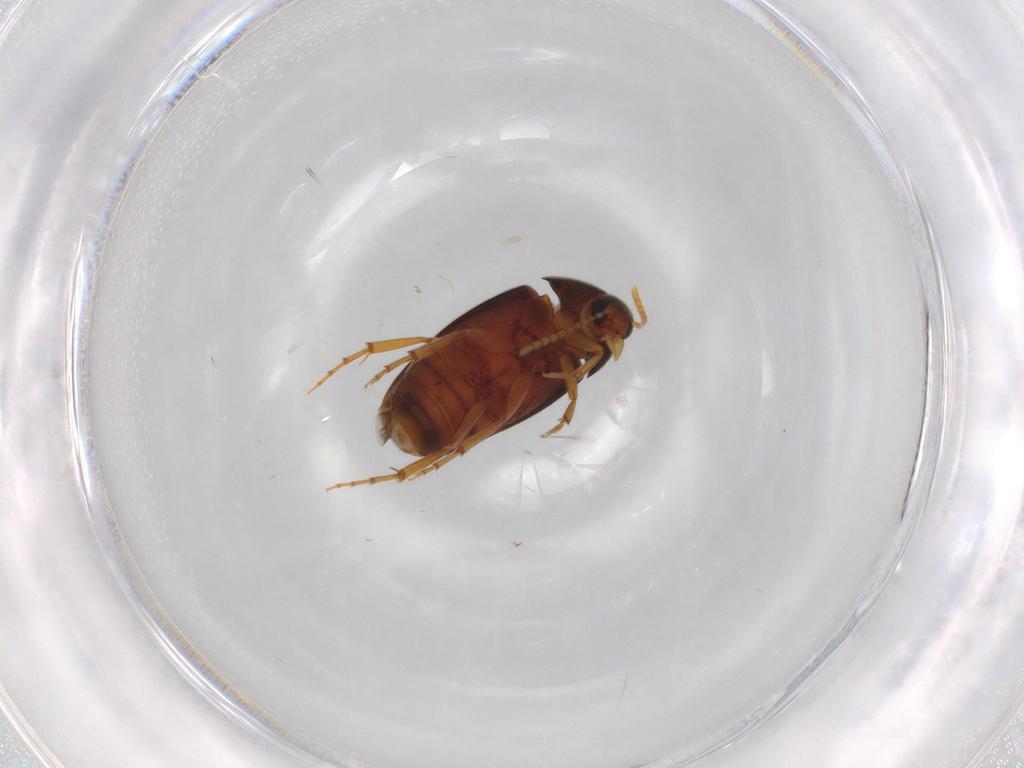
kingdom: Animalia
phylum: Arthropoda
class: Insecta
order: Coleoptera
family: Scraptiidae
